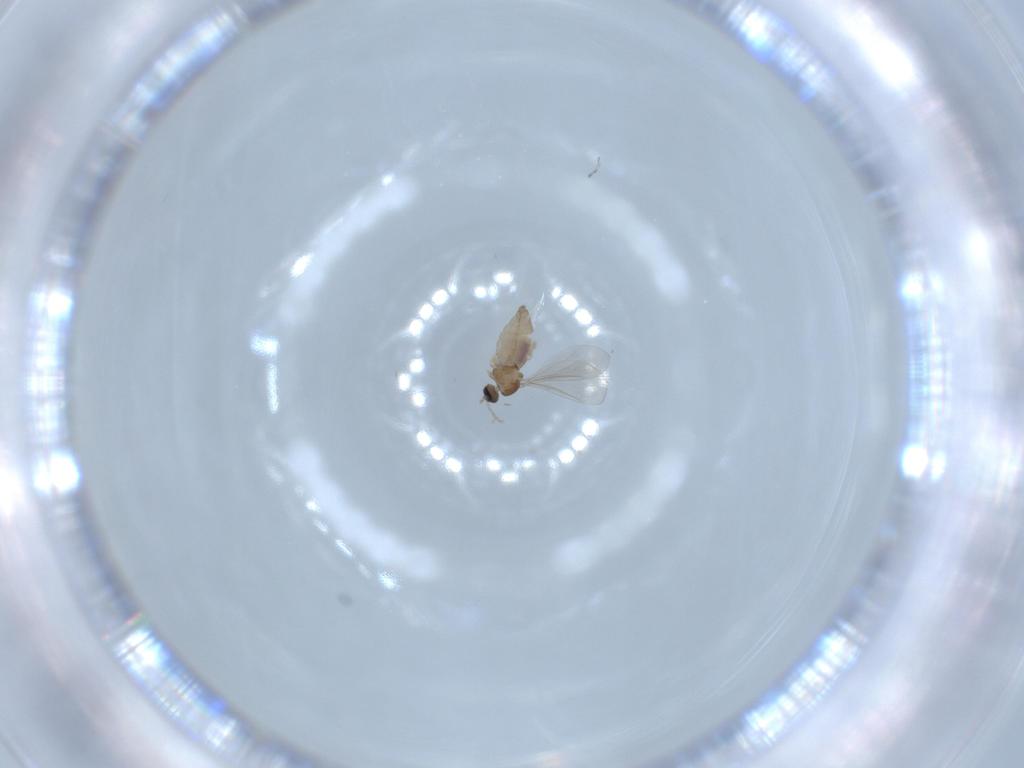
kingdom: Animalia
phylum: Arthropoda
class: Insecta
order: Diptera
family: Cecidomyiidae
